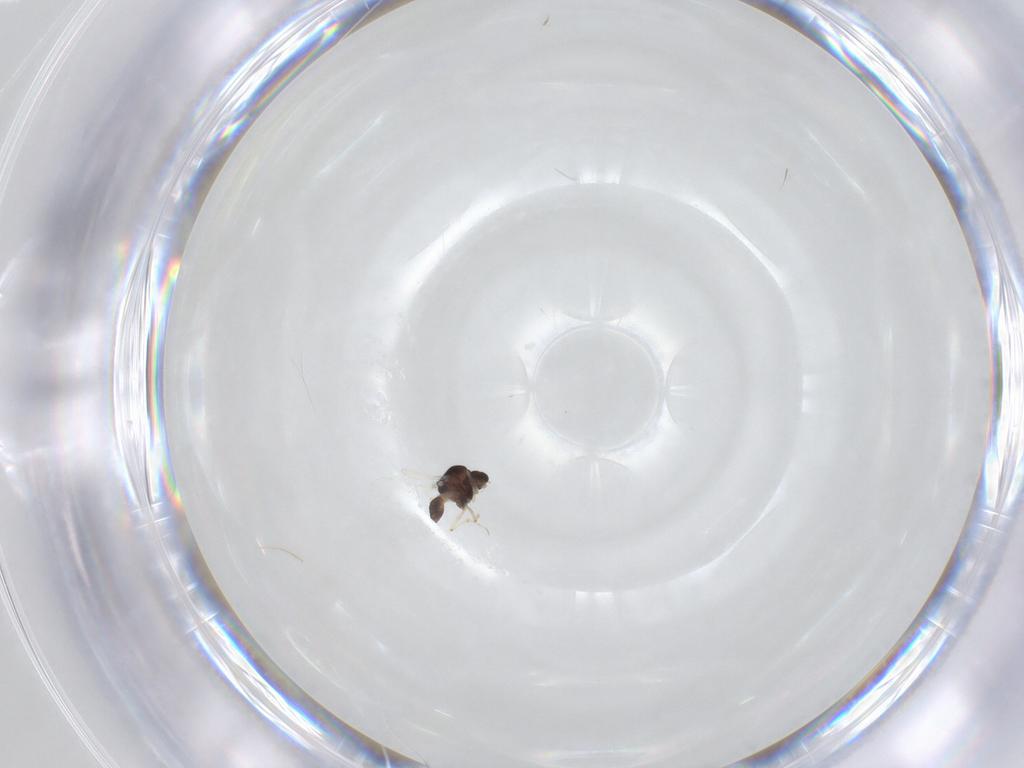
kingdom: Animalia
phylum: Arthropoda
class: Insecta
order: Diptera
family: Chironomidae
